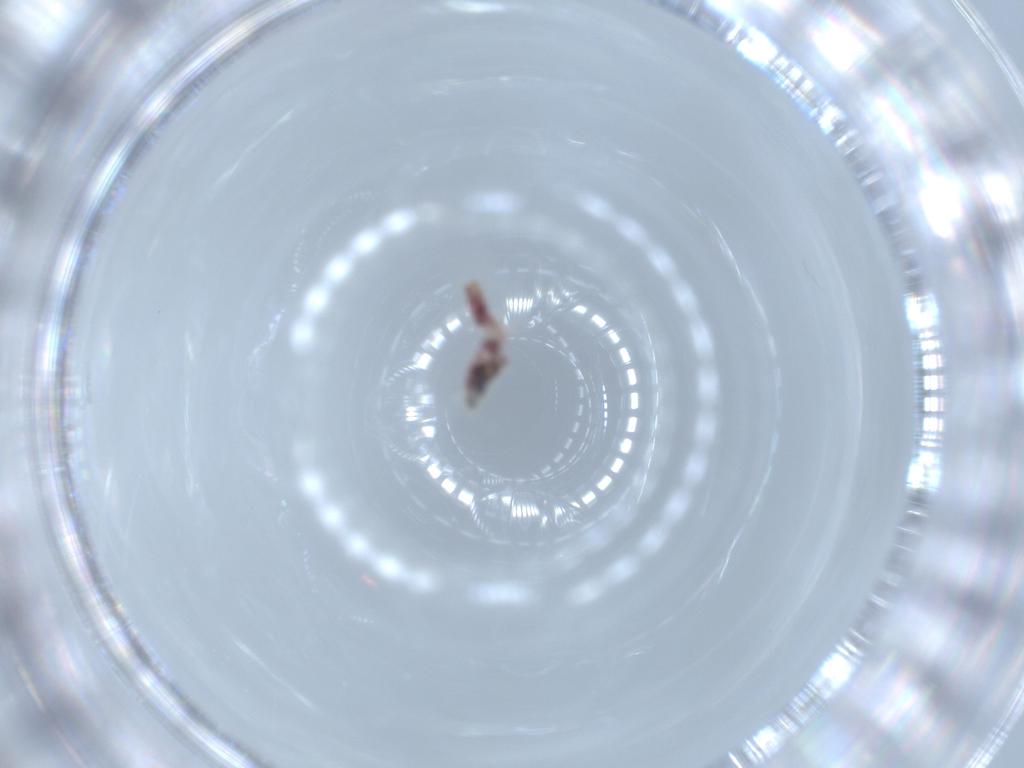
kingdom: Animalia
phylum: Arthropoda
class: Insecta
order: Psocodea
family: Liposcelididae
